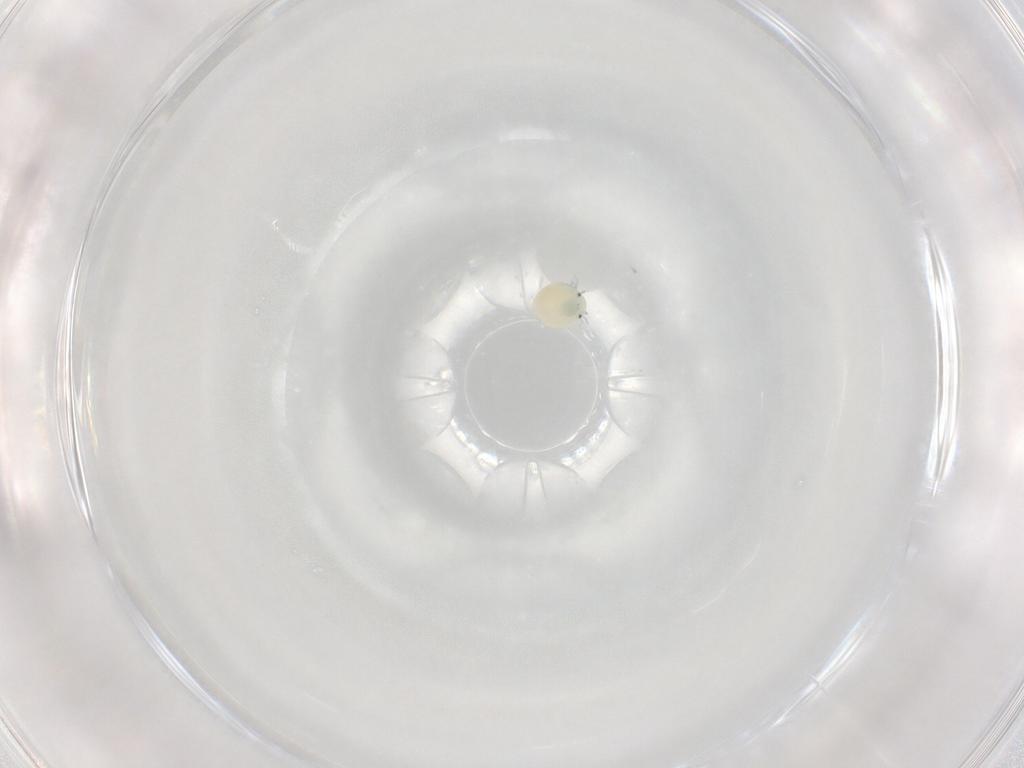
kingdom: Animalia
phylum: Arthropoda
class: Arachnida
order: Trombidiformes
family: Arrenuridae
